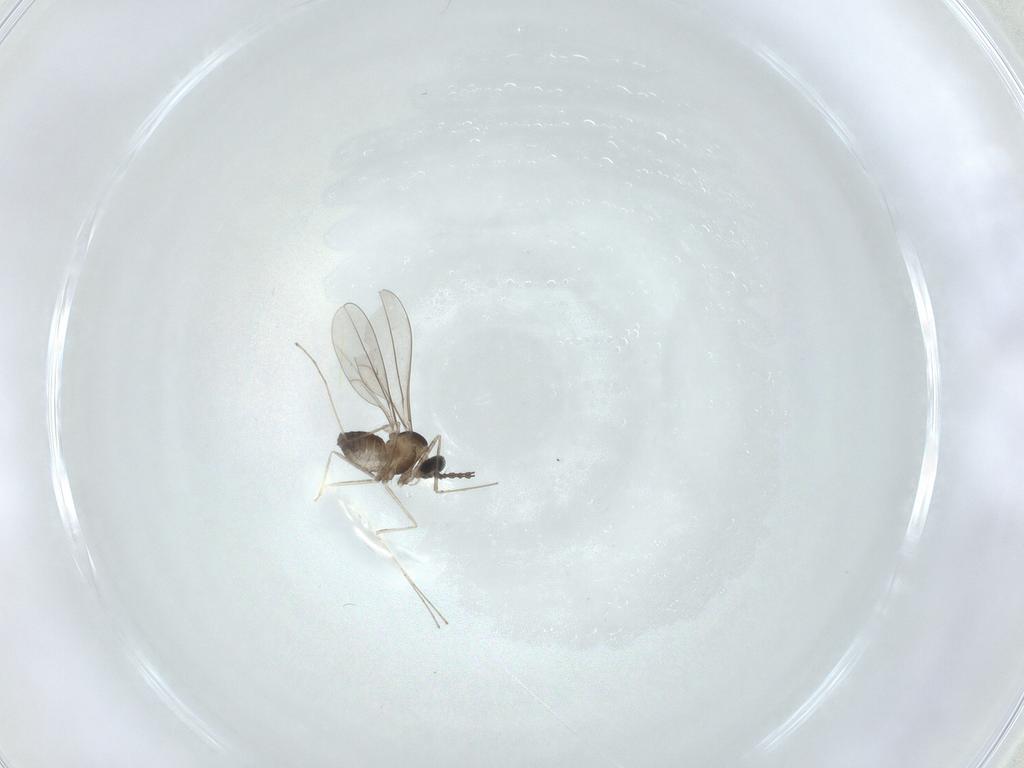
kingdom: Animalia
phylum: Arthropoda
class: Insecta
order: Diptera
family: Cecidomyiidae
